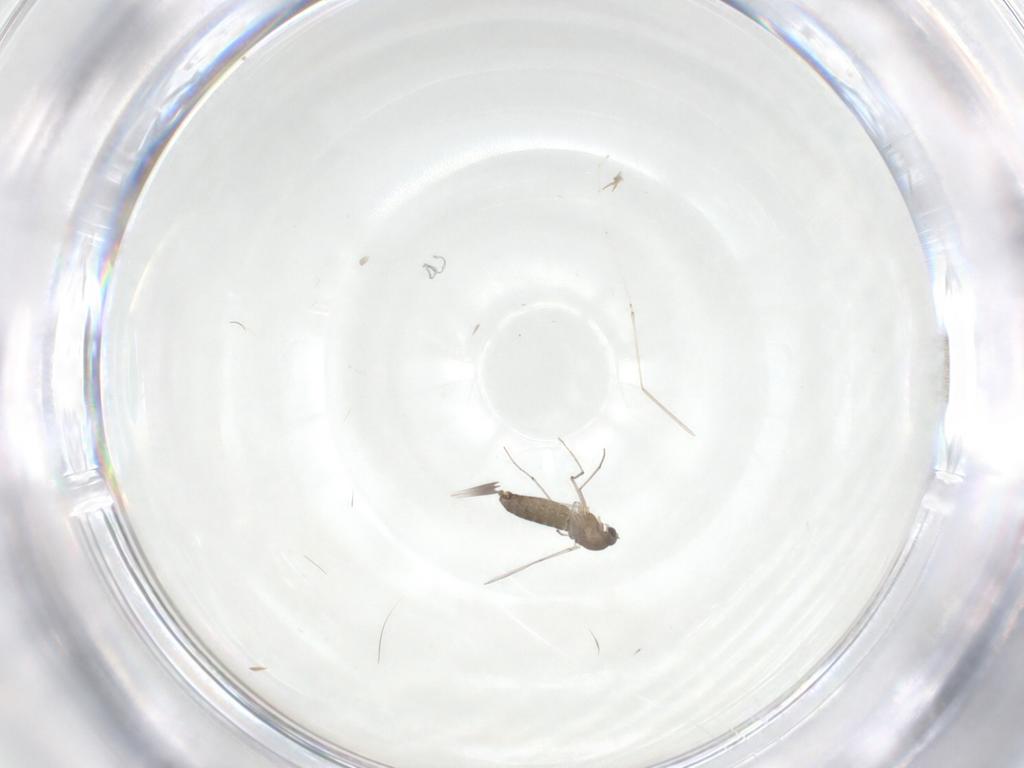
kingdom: Animalia
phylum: Arthropoda
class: Insecta
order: Diptera
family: Chironomidae
